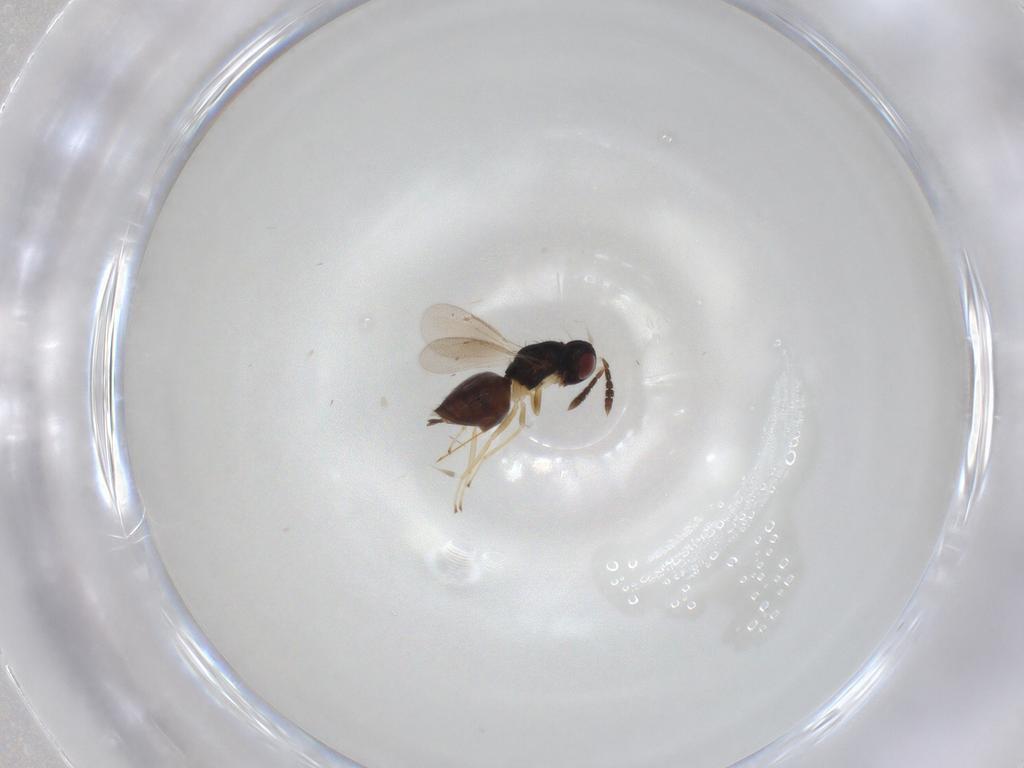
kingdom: Animalia
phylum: Arthropoda
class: Insecta
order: Hymenoptera
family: Eulophidae
